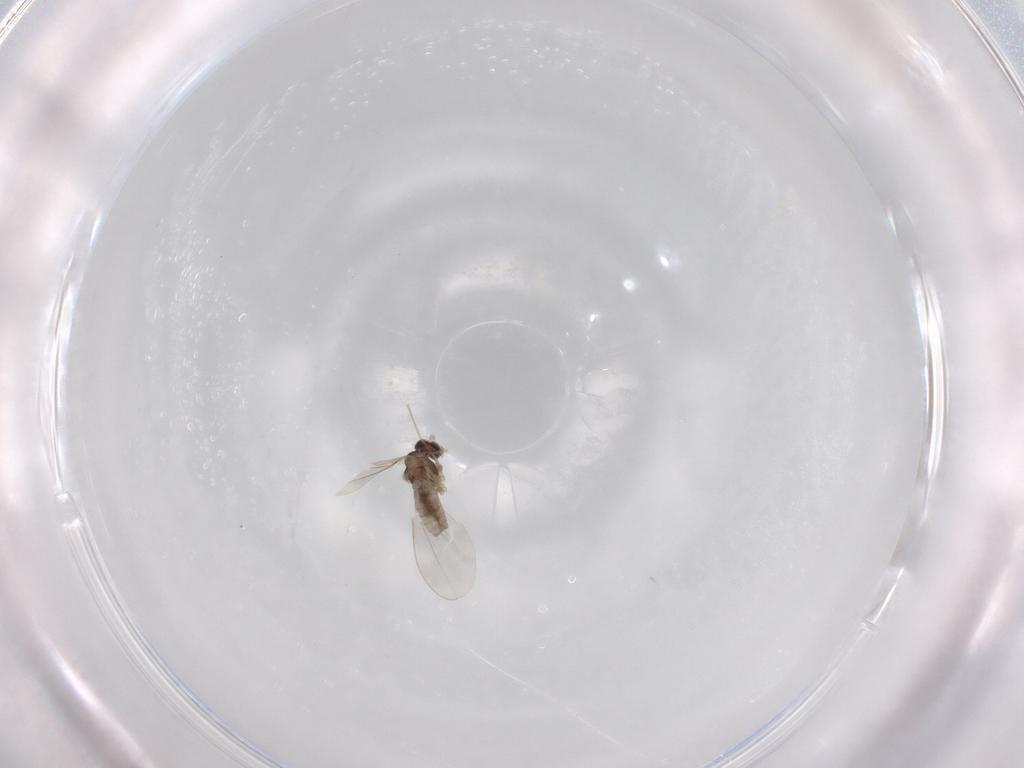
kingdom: Animalia
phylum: Arthropoda
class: Insecta
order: Diptera
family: Cecidomyiidae
